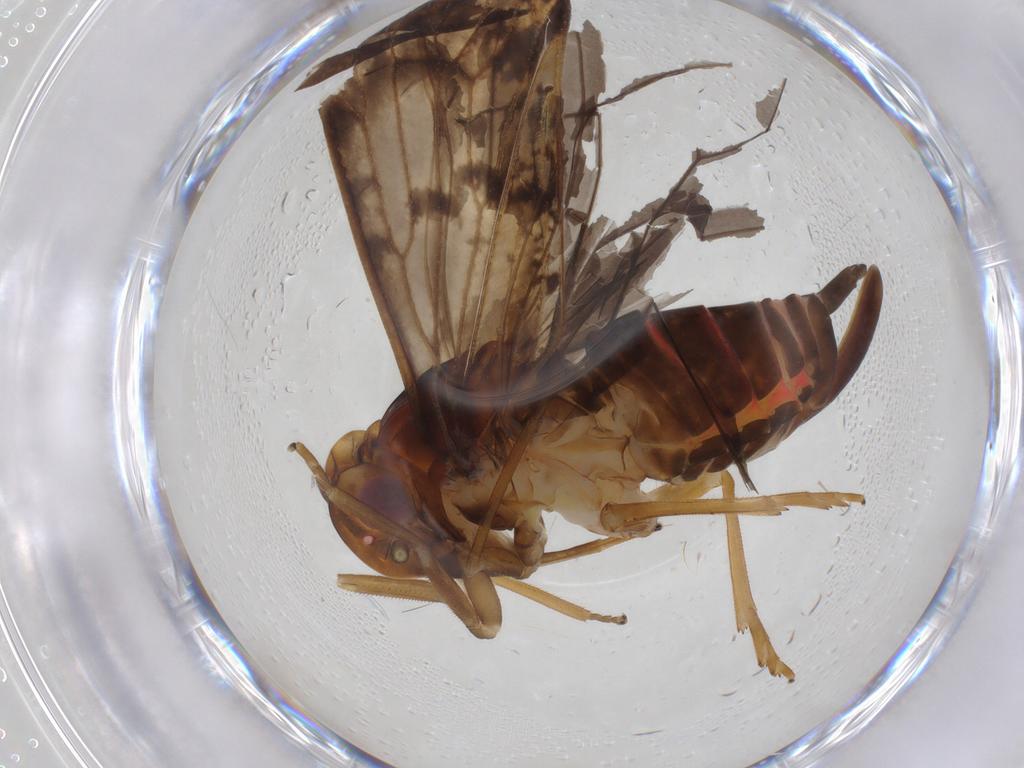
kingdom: Animalia
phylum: Arthropoda
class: Insecta
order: Hemiptera
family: Cixiidae
